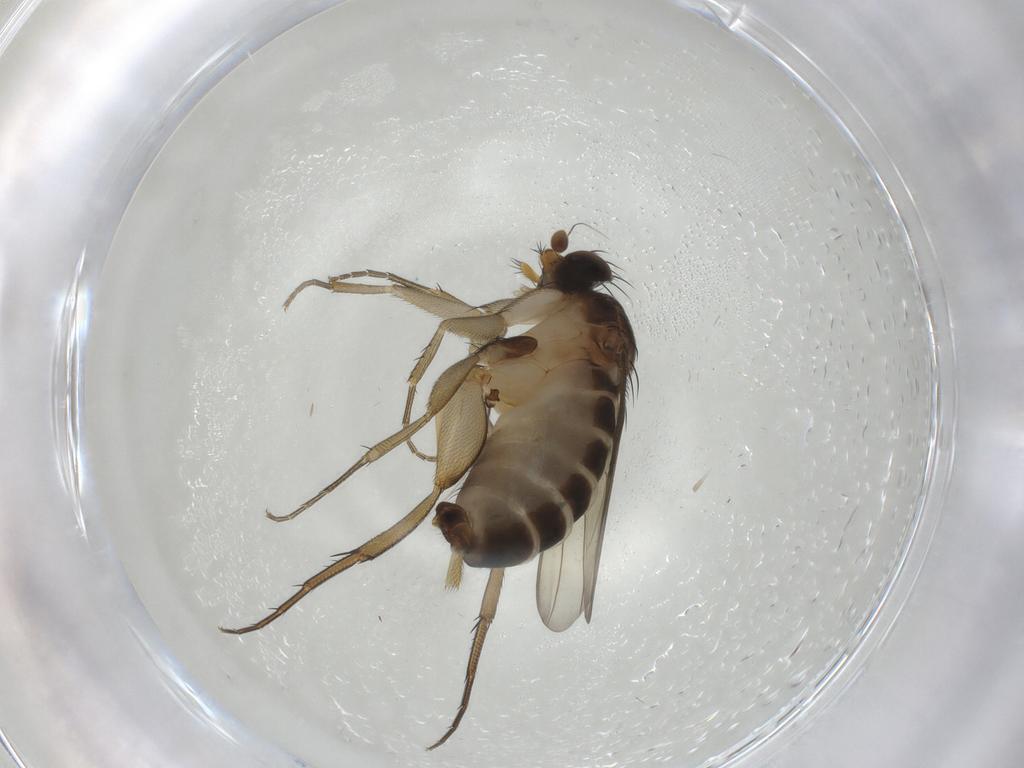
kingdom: Animalia
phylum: Arthropoda
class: Insecta
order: Diptera
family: Phoridae
